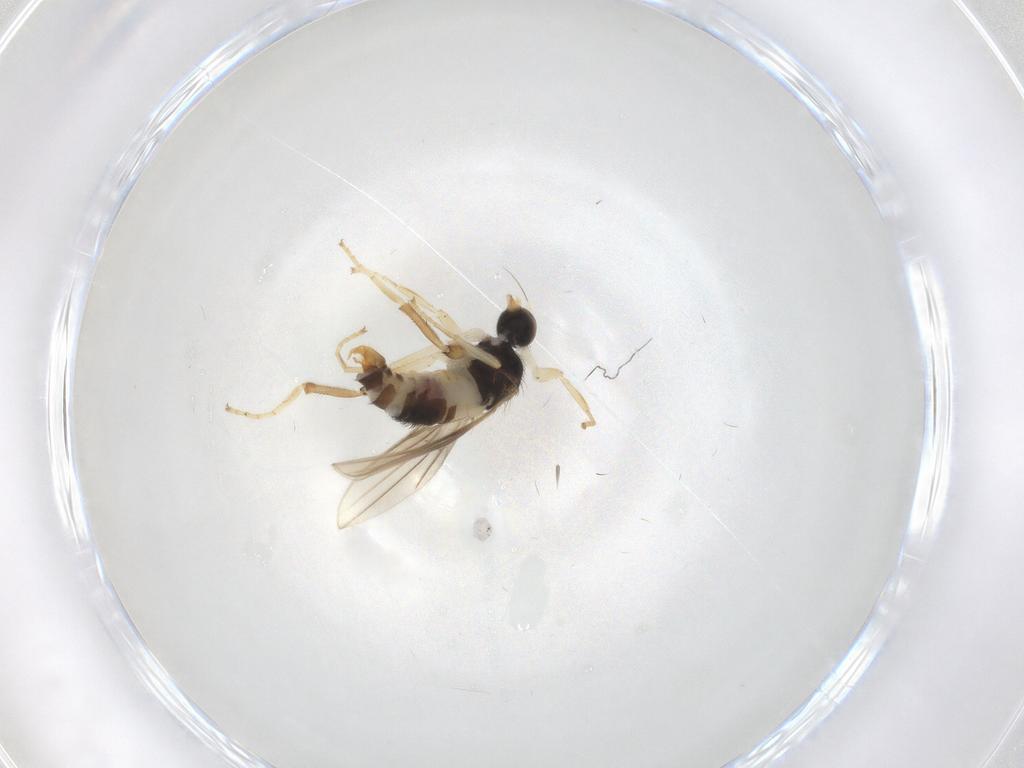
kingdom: Animalia
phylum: Arthropoda
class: Insecta
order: Diptera
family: Hybotidae
